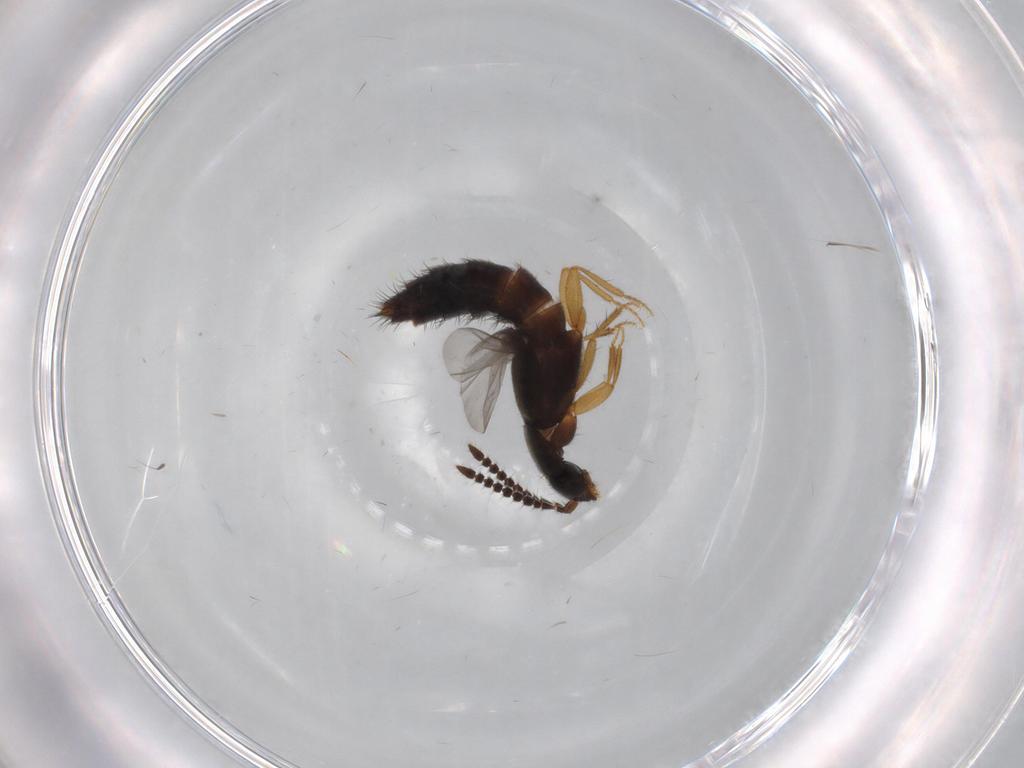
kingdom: Animalia
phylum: Arthropoda
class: Insecta
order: Coleoptera
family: Staphylinidae
